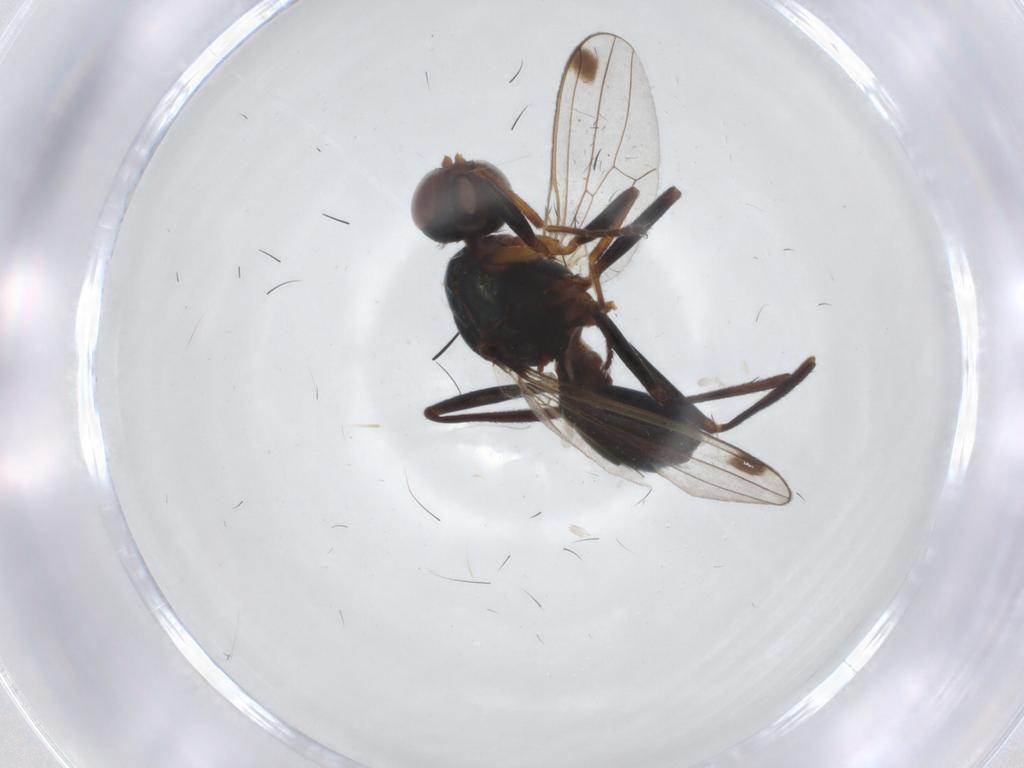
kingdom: Animalia
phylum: Arthropoda
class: Insecta
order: Diptera
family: Sepsidae
